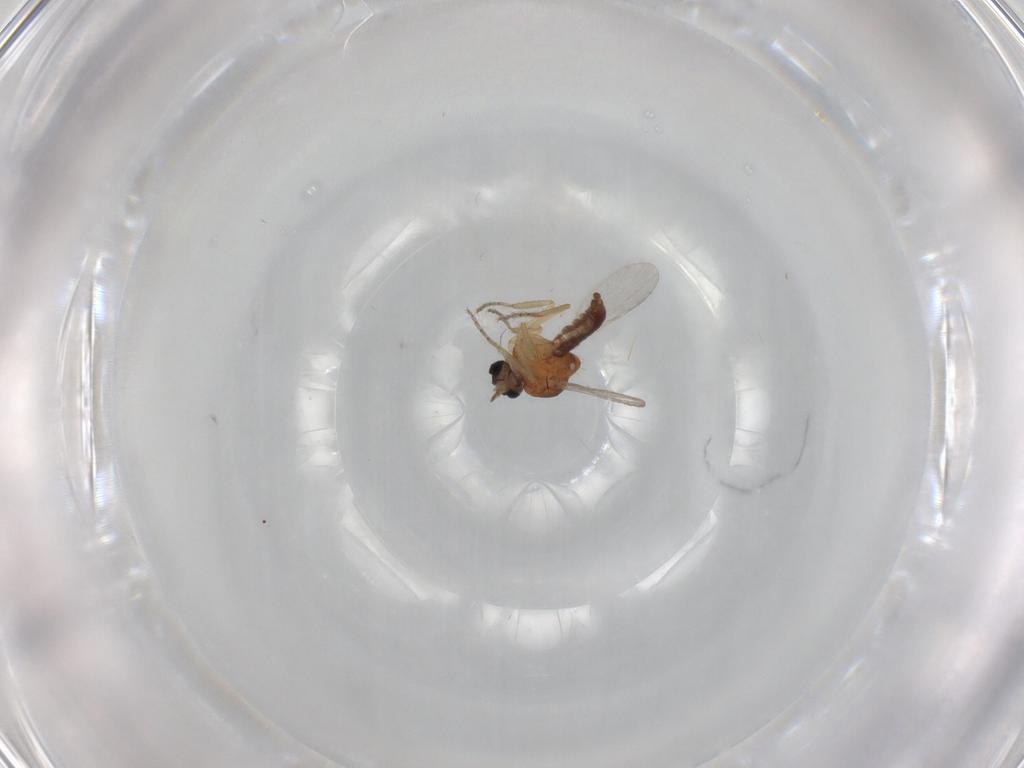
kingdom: Animalia
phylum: Arthropoda
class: Insecta
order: Diptera
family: Ceratopogonidae
